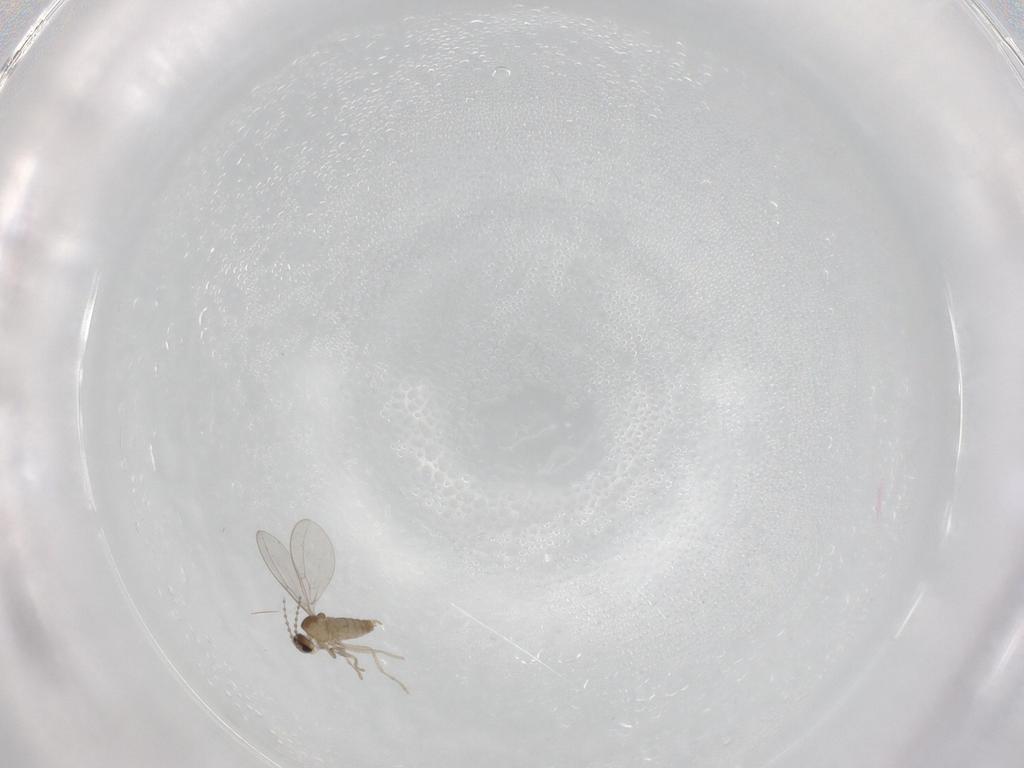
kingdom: Animalia
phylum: Arthropoda
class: Insecta
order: Diptera
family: Cecidomyiidae
